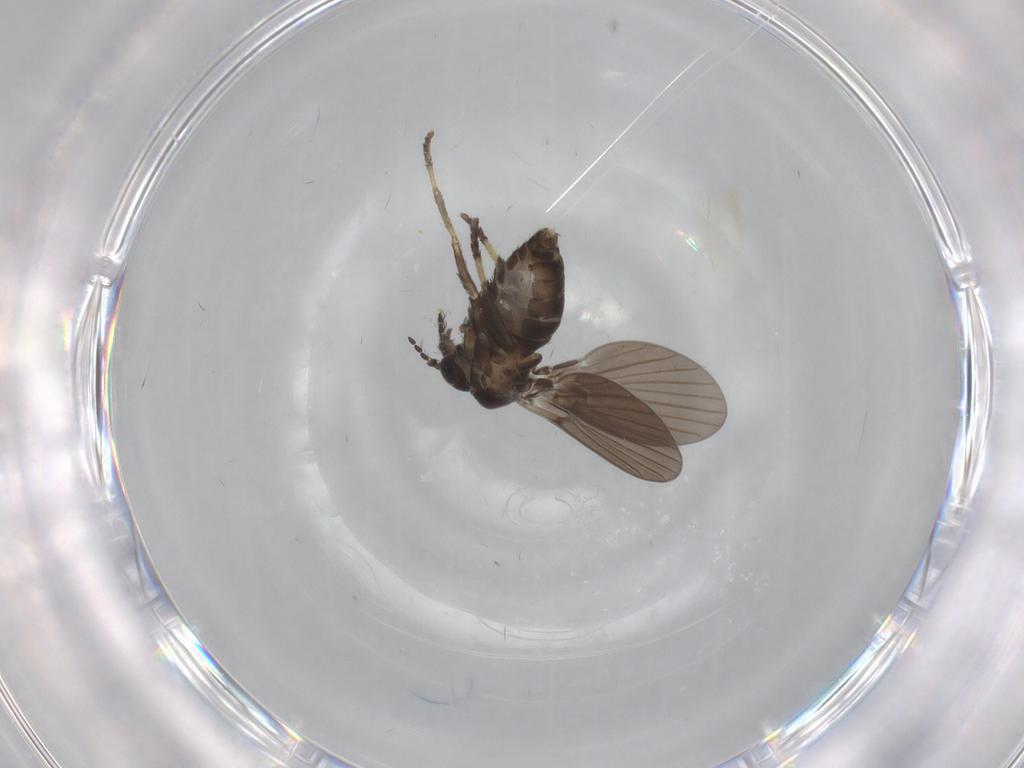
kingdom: Animalia
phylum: Arthropoda
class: Insecta
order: Diptera
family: Psychodidae
